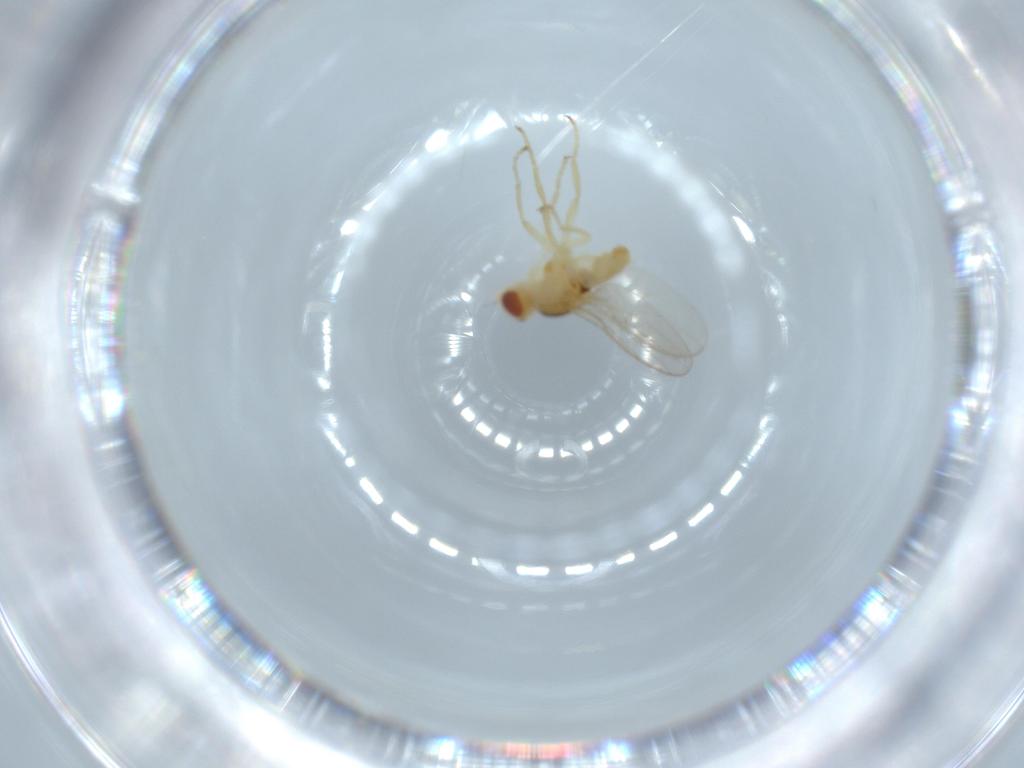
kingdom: Animalia
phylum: Arthropoda
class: Insecta
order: Diptera
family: Chloropidae
